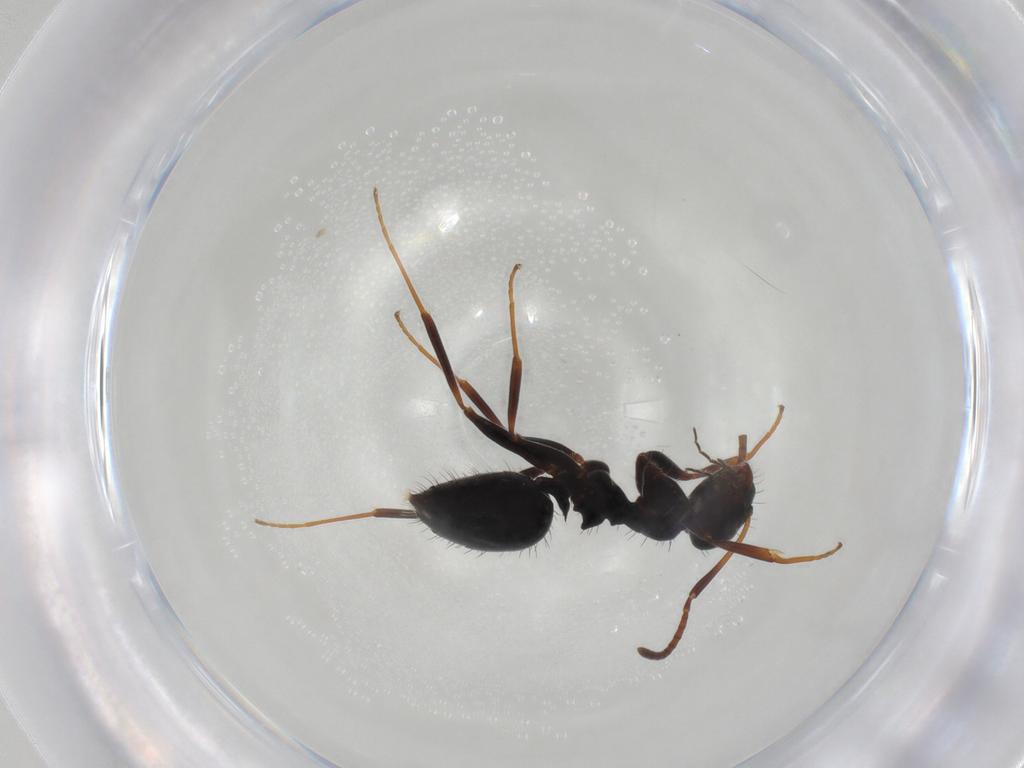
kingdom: Animalia
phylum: Arthropoda
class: Insecta
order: Hymenoptera
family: Formicidae
